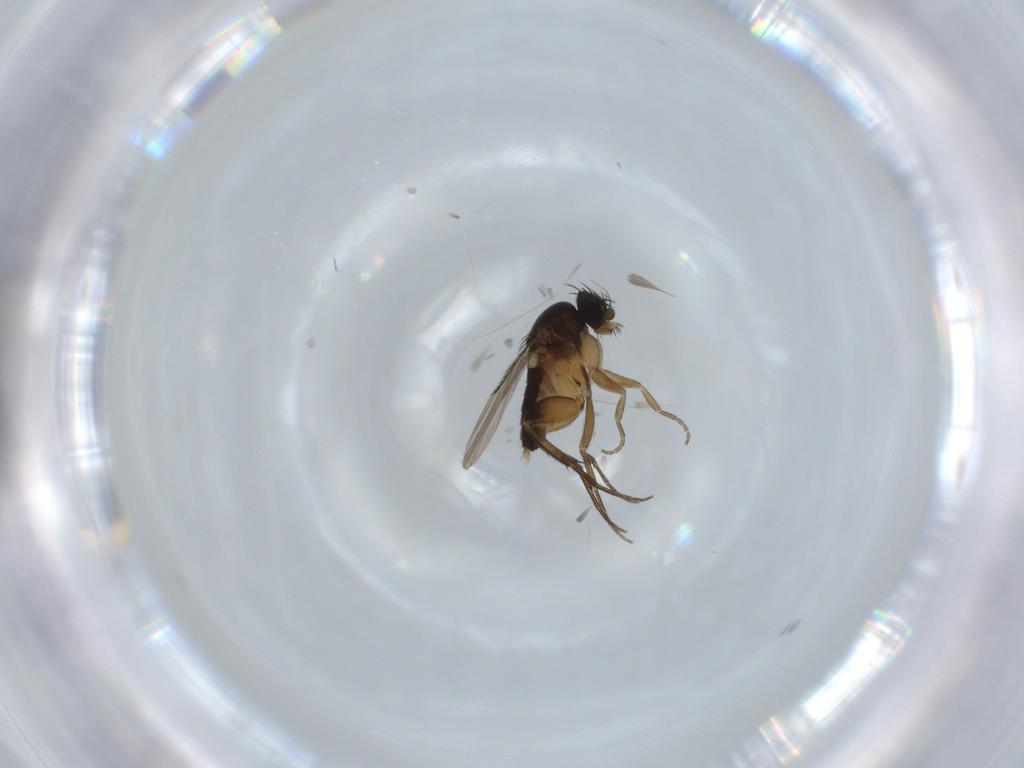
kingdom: Animalia
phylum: Arthropoda
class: Insecta
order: Diptera
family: Phoridae
